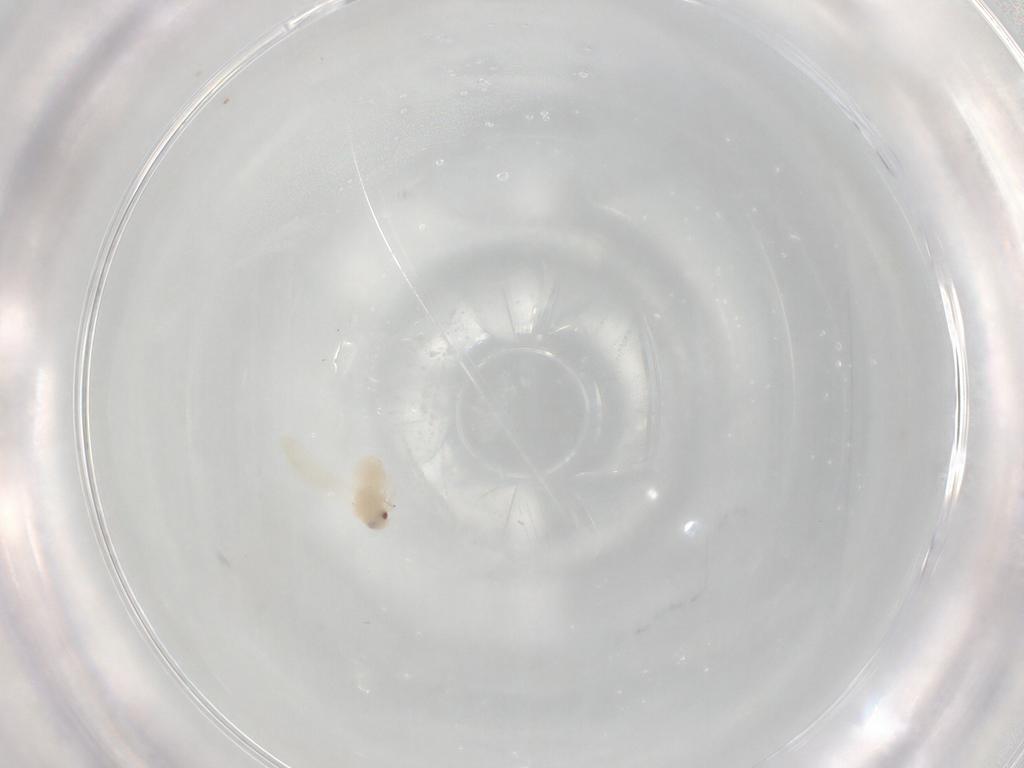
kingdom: Animalia
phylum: Arthropoda
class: Insecta
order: Hemiptera
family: Aleyrodidae
